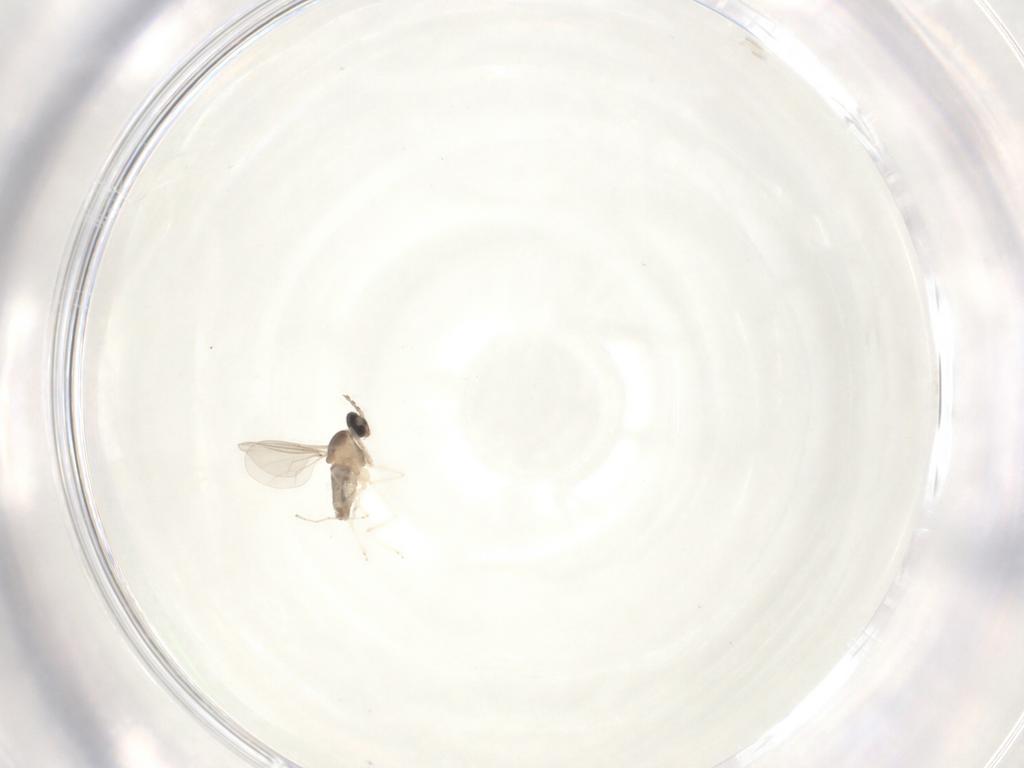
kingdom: Animalia
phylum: Arthropoda
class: Insecta
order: Diptera
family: Cecidomyiidae
